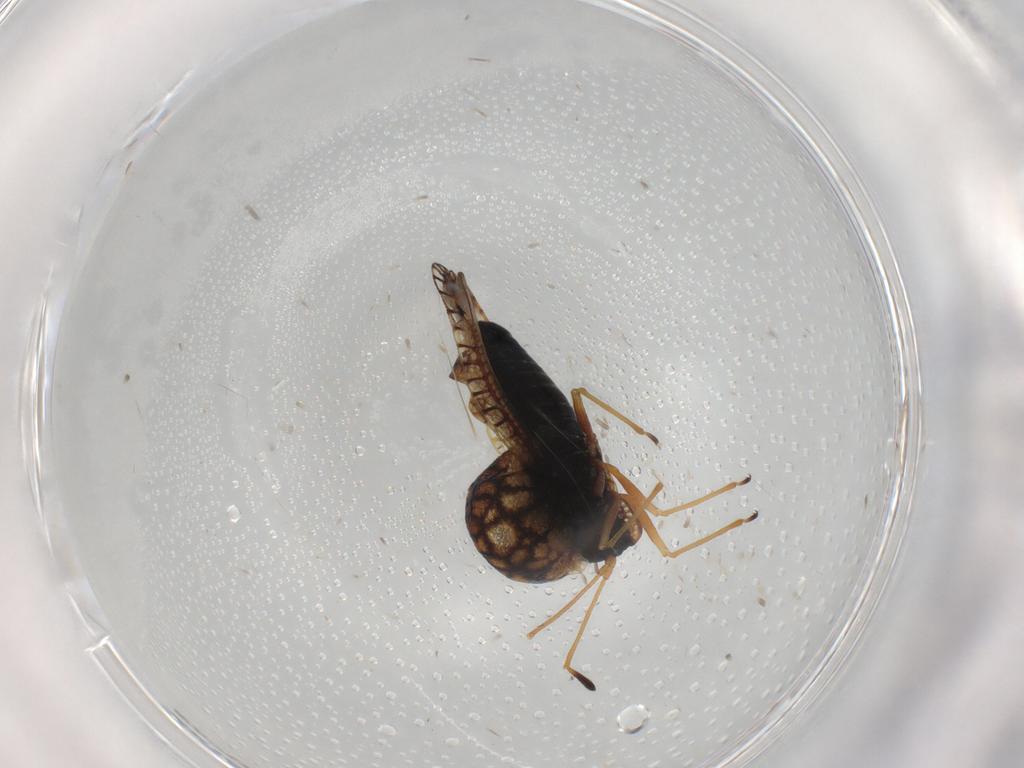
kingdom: Animalia
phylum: Arthropoda
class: Insecta
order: Hemiptera
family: Tingidae
